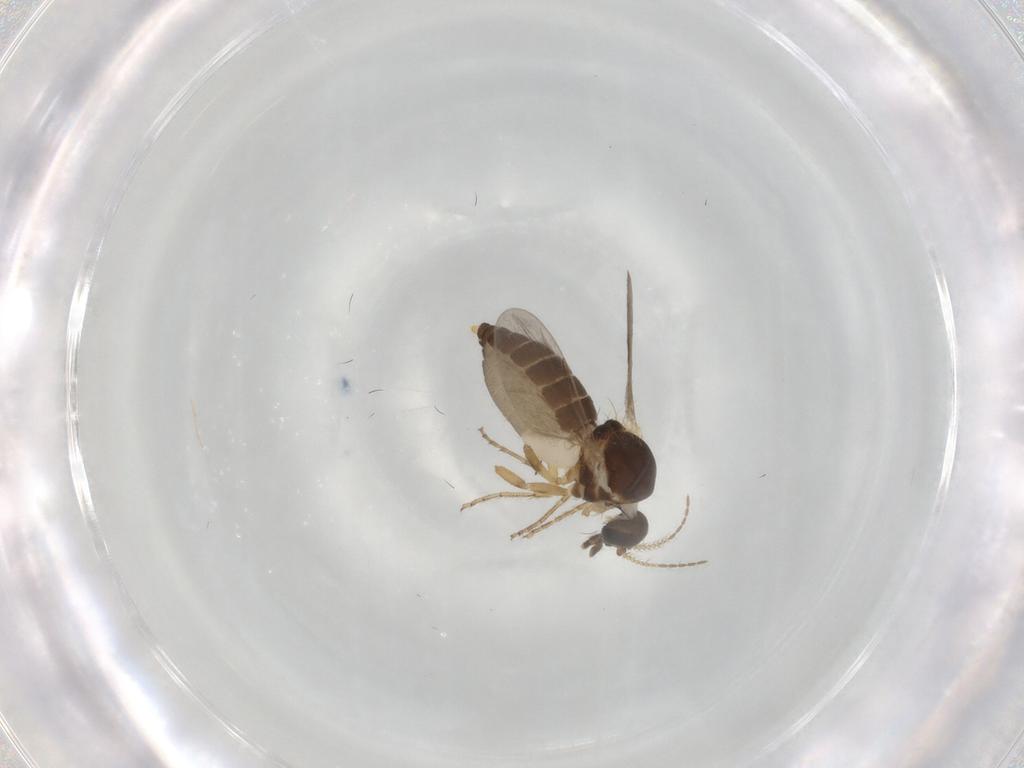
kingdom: Animalia
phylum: Arthropoda
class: Insecta
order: Diptera
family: Ceratopogonidae
